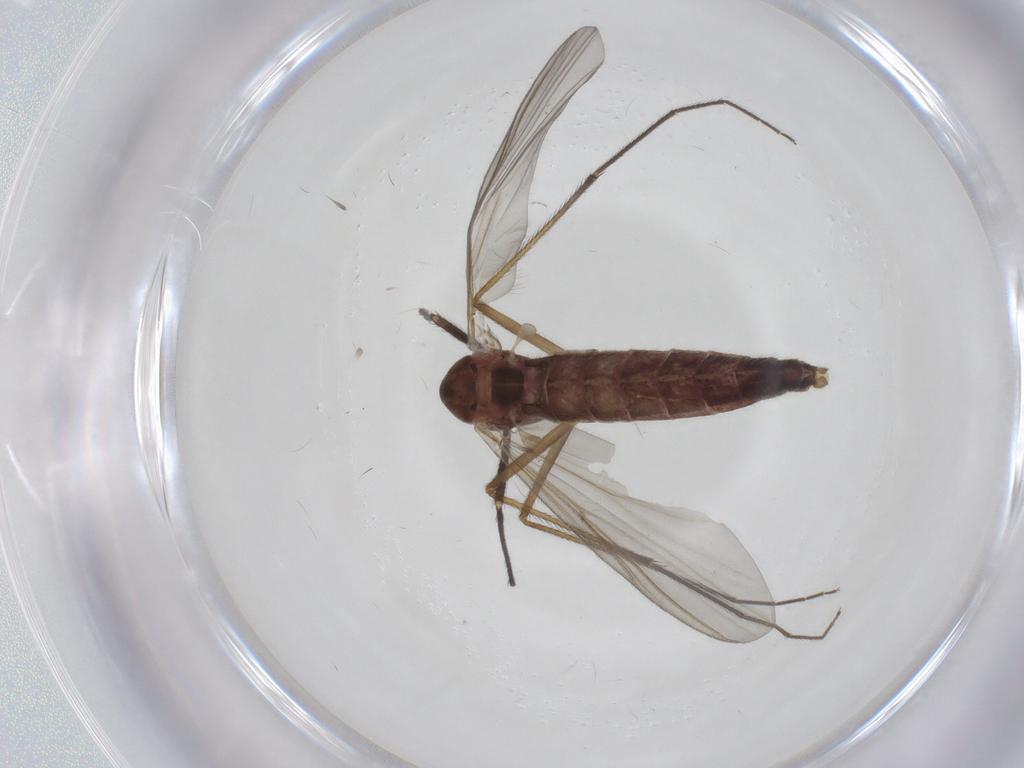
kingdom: Animalia
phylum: Arthropoda
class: Insecta
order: Diptera
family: Chironomidae
